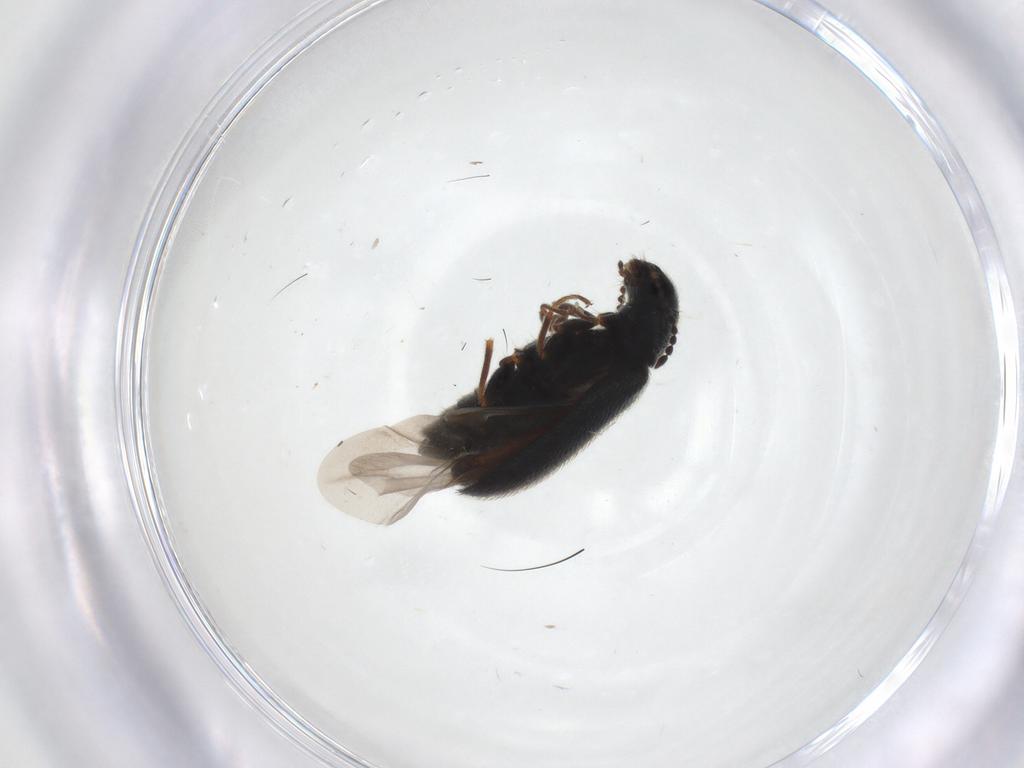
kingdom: Animalia
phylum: Arthropoda
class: Insecta
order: Coleoptera
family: Melyridae
